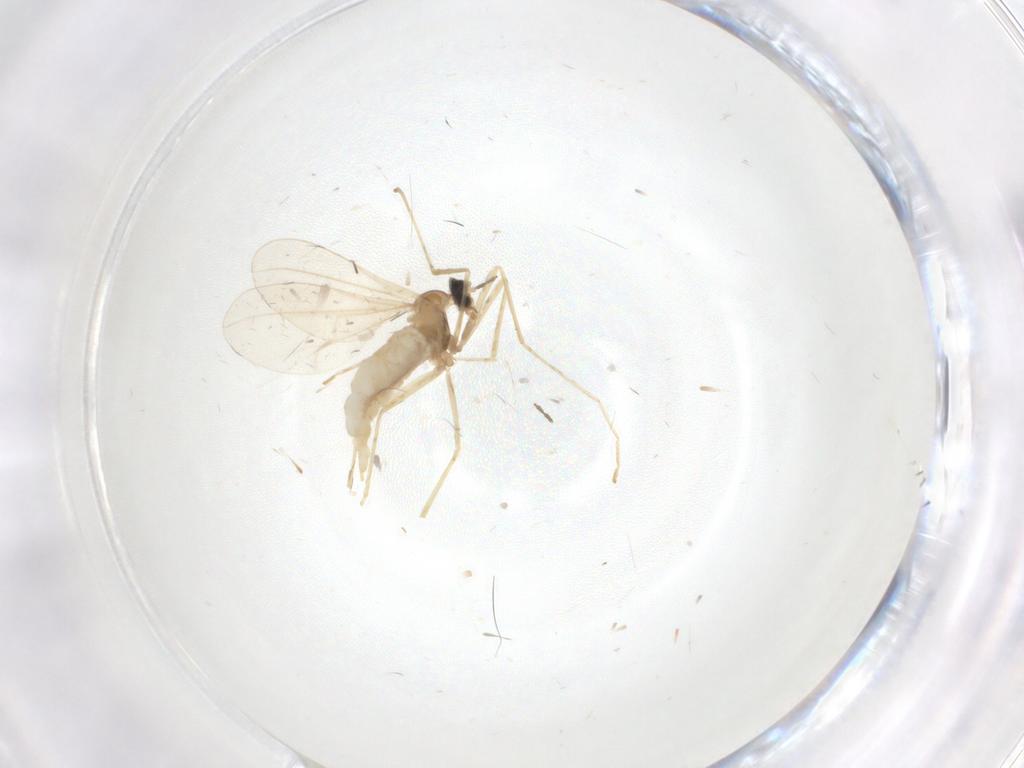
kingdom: Animalia
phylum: Arthropoda
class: Insecta
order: Diptera
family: Cecidomyiidae
